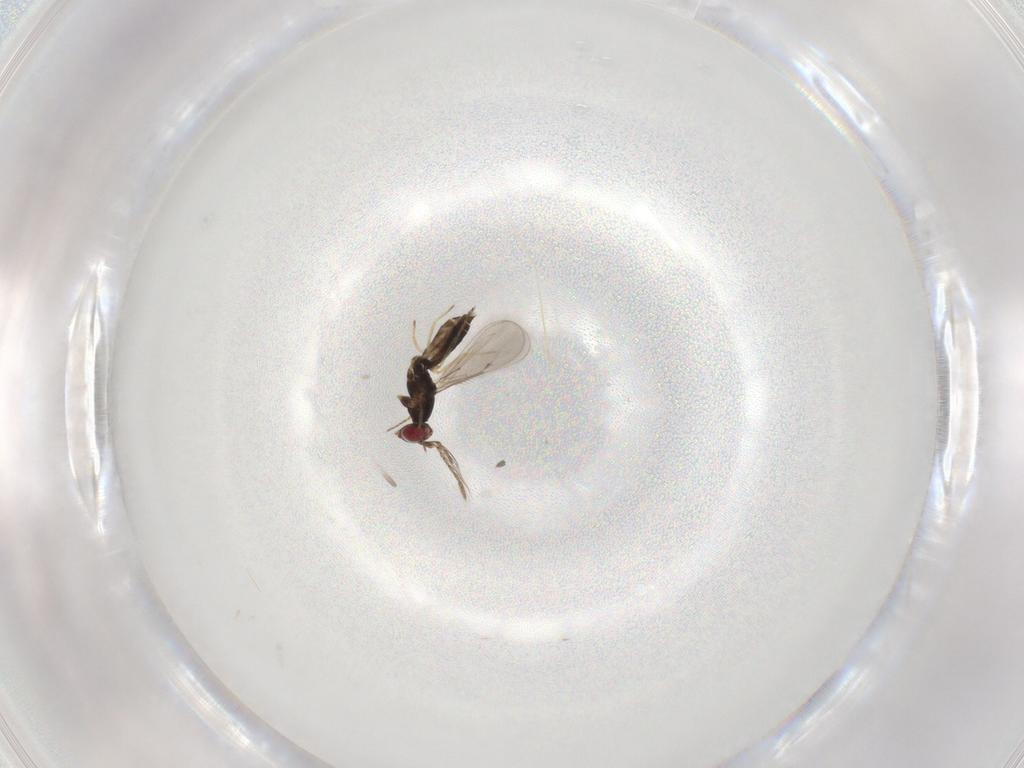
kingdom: Animalia
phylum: Arthropoda
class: Insecta
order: Hymenoptera
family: Eulophidae
